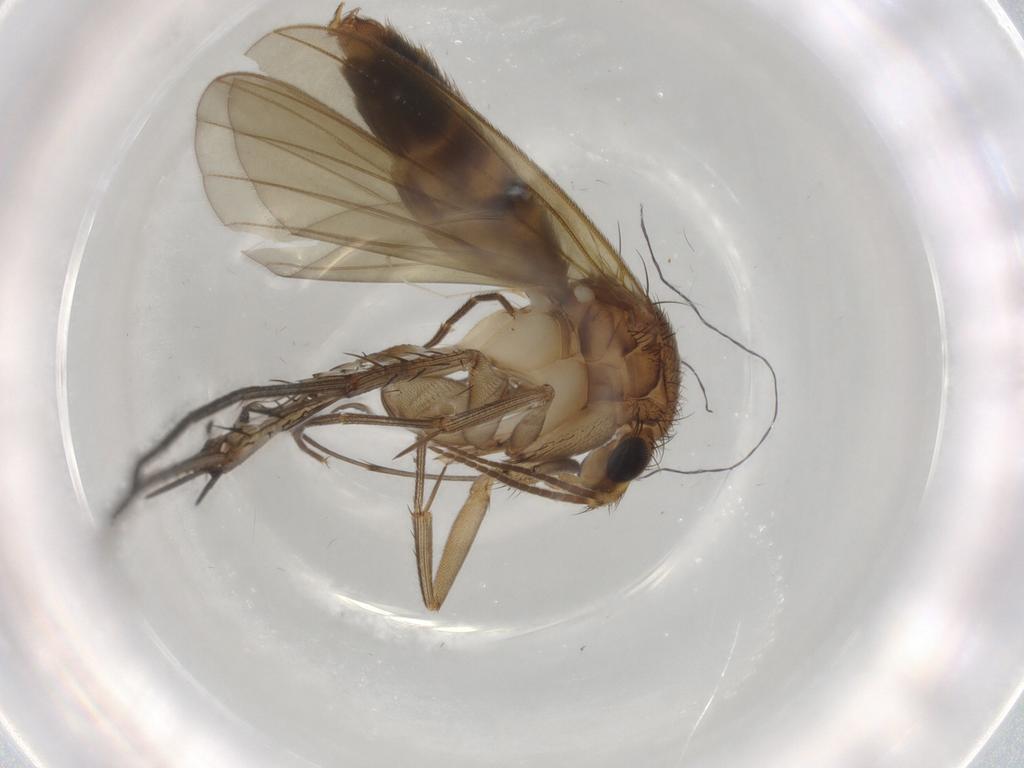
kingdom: Animalia
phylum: Arthropoda
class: Insecta
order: Diptera
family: Mycetophilidae
